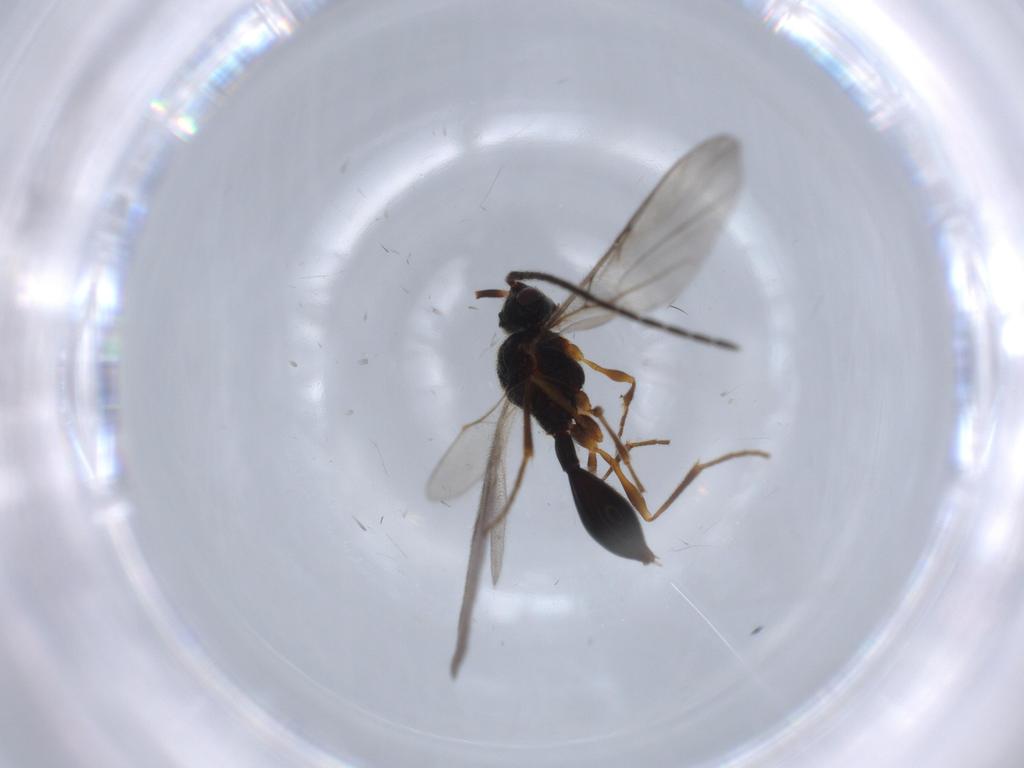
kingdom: Animalia
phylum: Arthropoda
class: Insecta
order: Hymenoptera
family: Diapriidae
